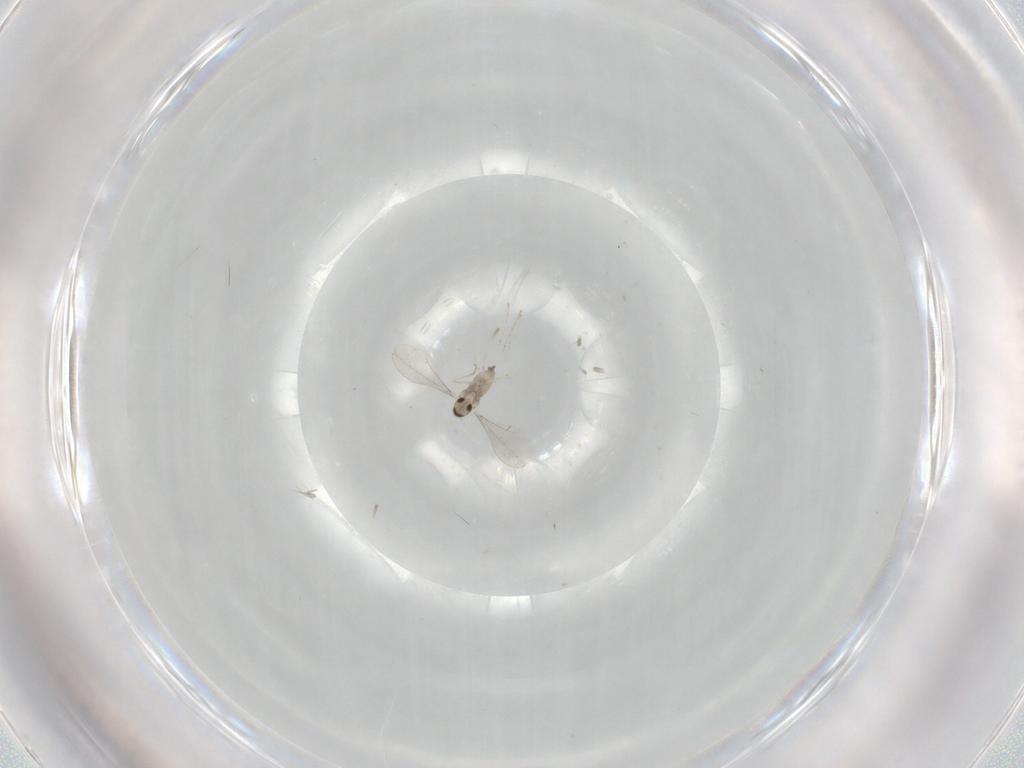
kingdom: Animalia
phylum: Arthropoda
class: Insecta
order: Diptera
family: Cecidomyiidae
